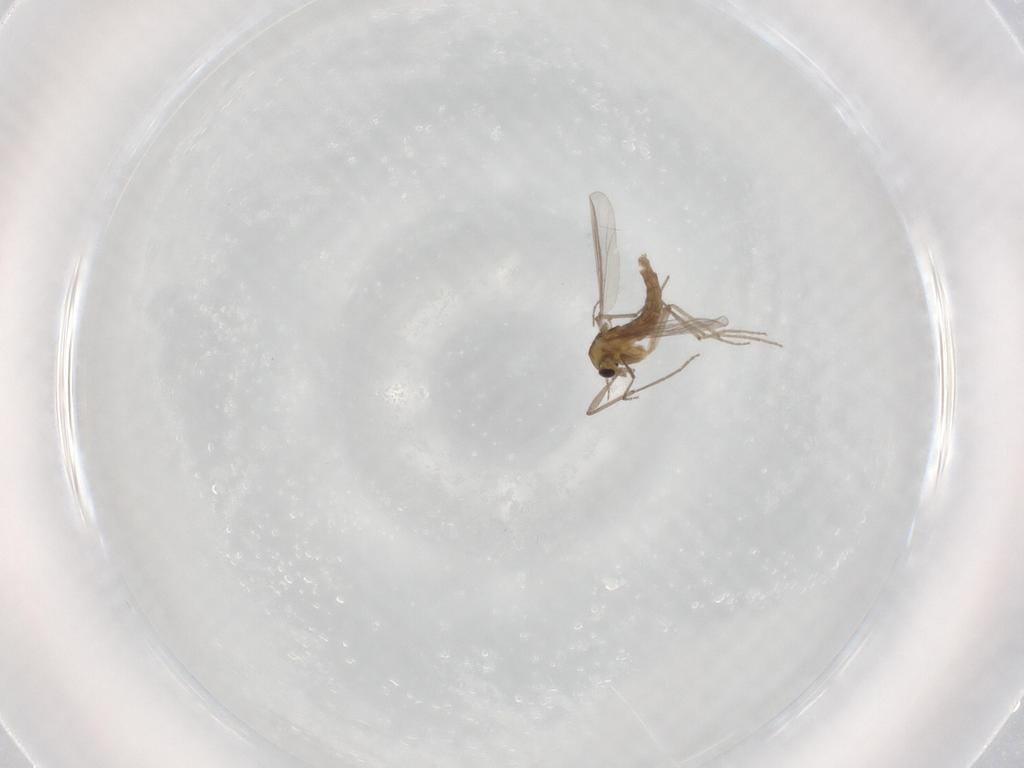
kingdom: Animalia
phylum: Arthropoda
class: Insecta
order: Diptera
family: Chironomidae
